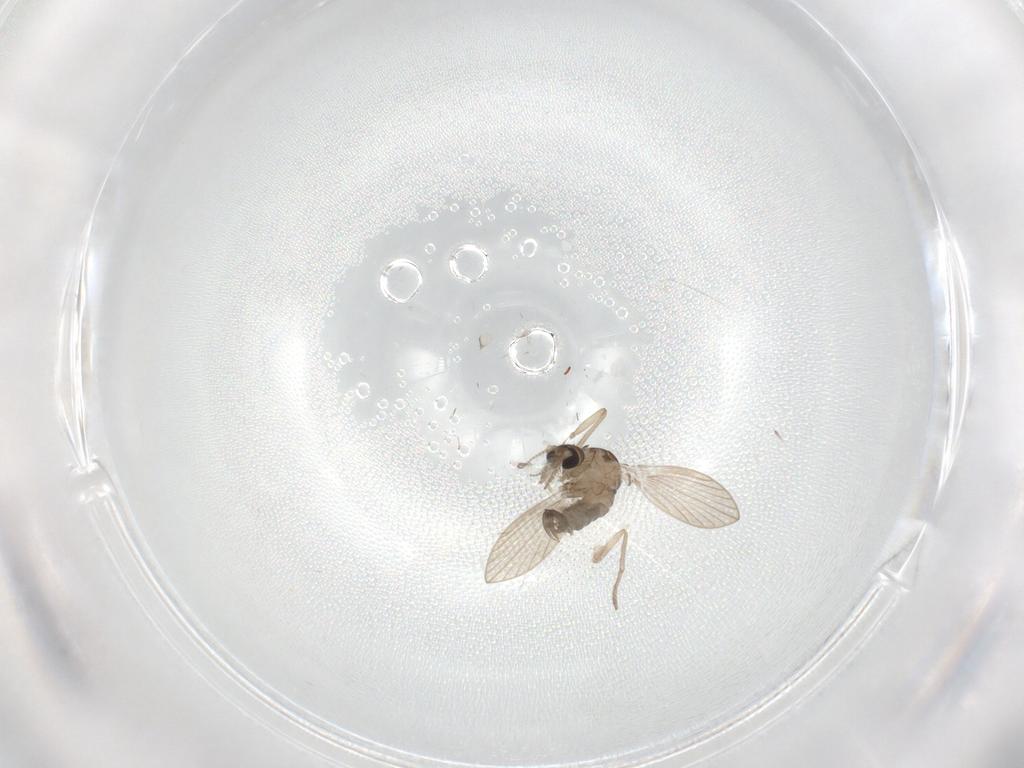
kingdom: Animalia
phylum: Arthropoda
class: Insecta
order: Diptera
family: Psychodidae
